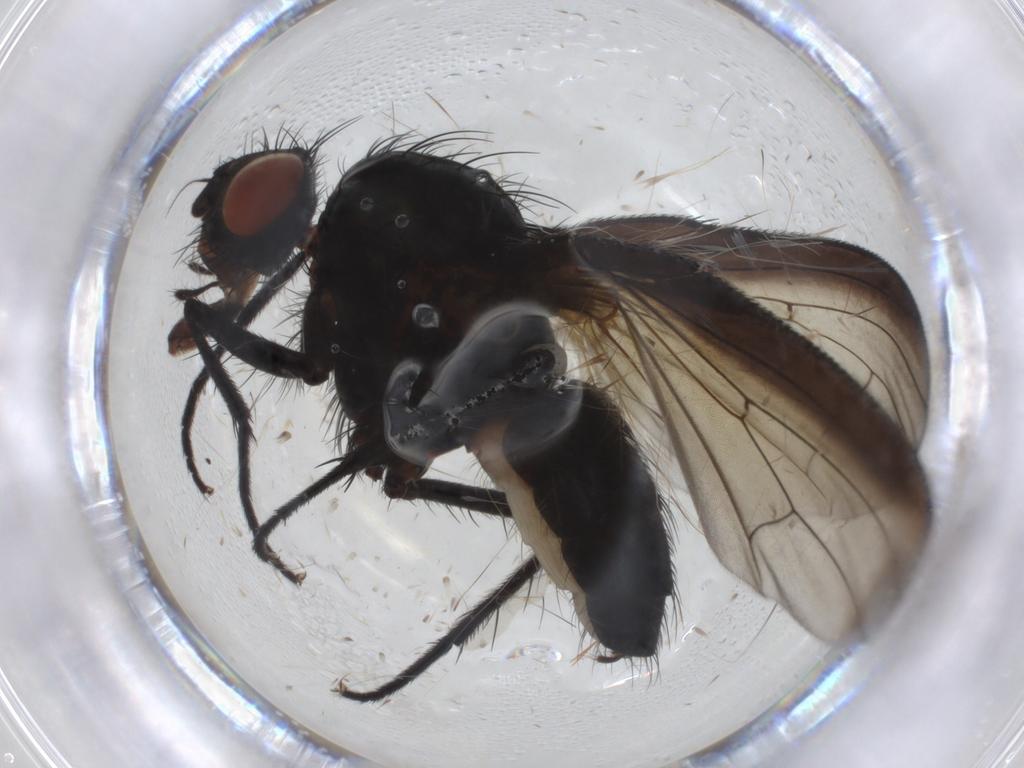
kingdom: Animalia
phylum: Arthropoda
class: Insecta
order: Diptera
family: Anthomyiidae
